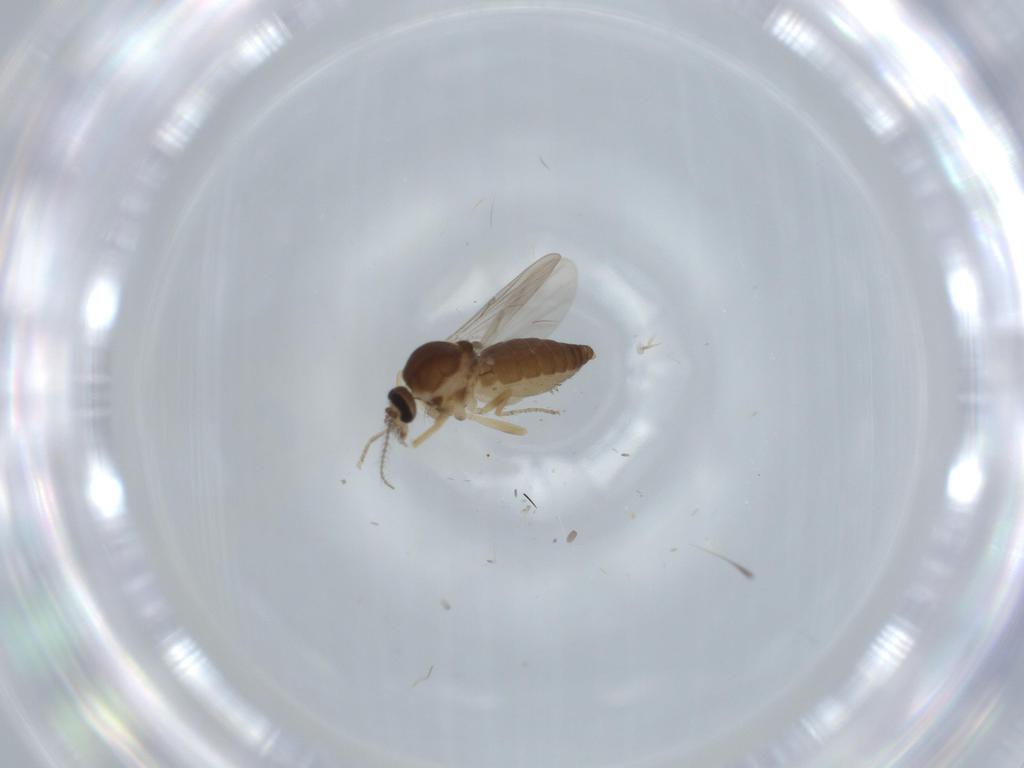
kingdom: Animalia
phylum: Arthropoda
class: Insecta
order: Diptera
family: Ceratopogonidae
